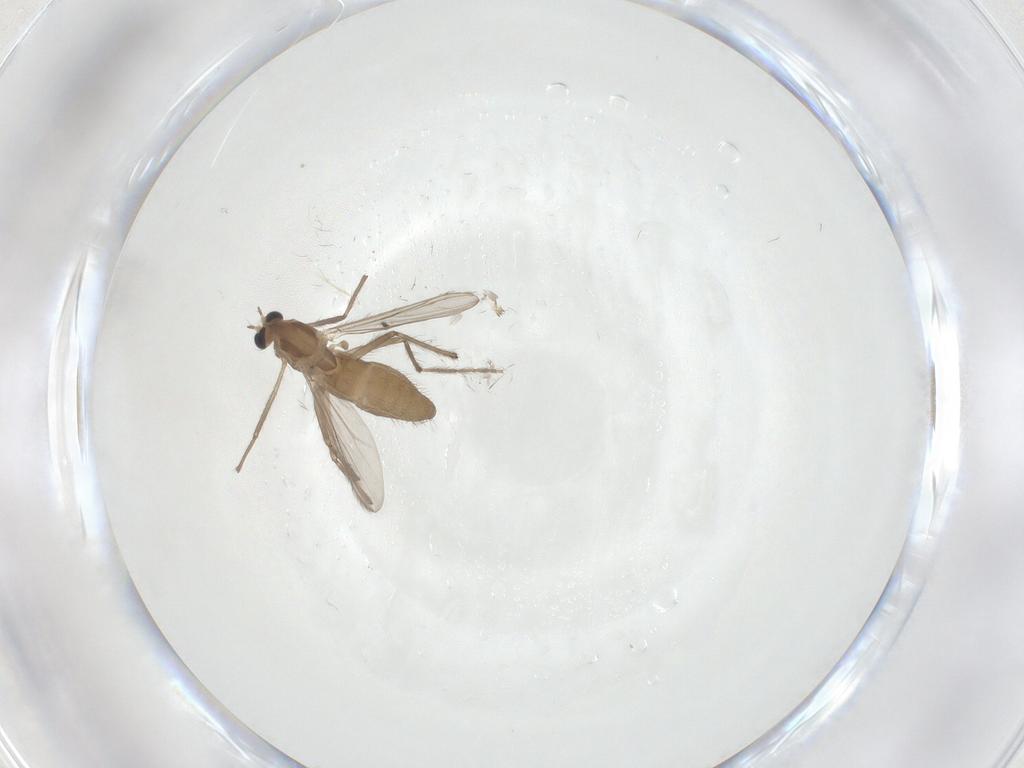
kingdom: Animalia
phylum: Arthropoda
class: Insecta
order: Diptera
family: Chironomidae
